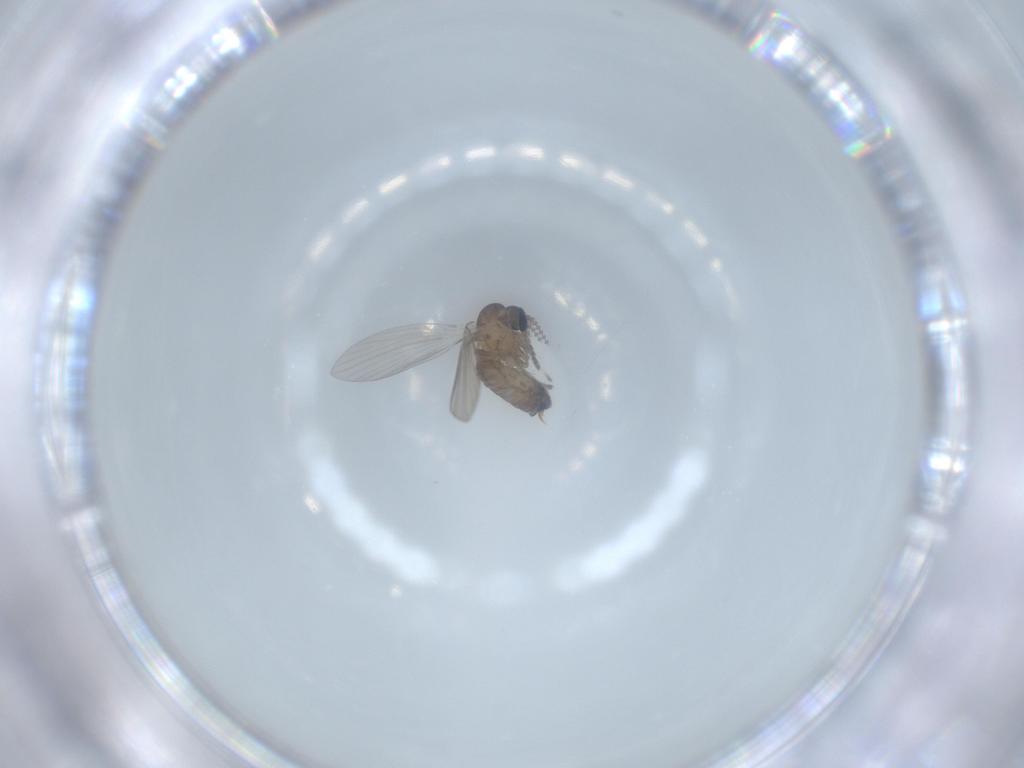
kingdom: Animalia
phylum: Arthropoda
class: Insecta
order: Diptera
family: Psychodidae
